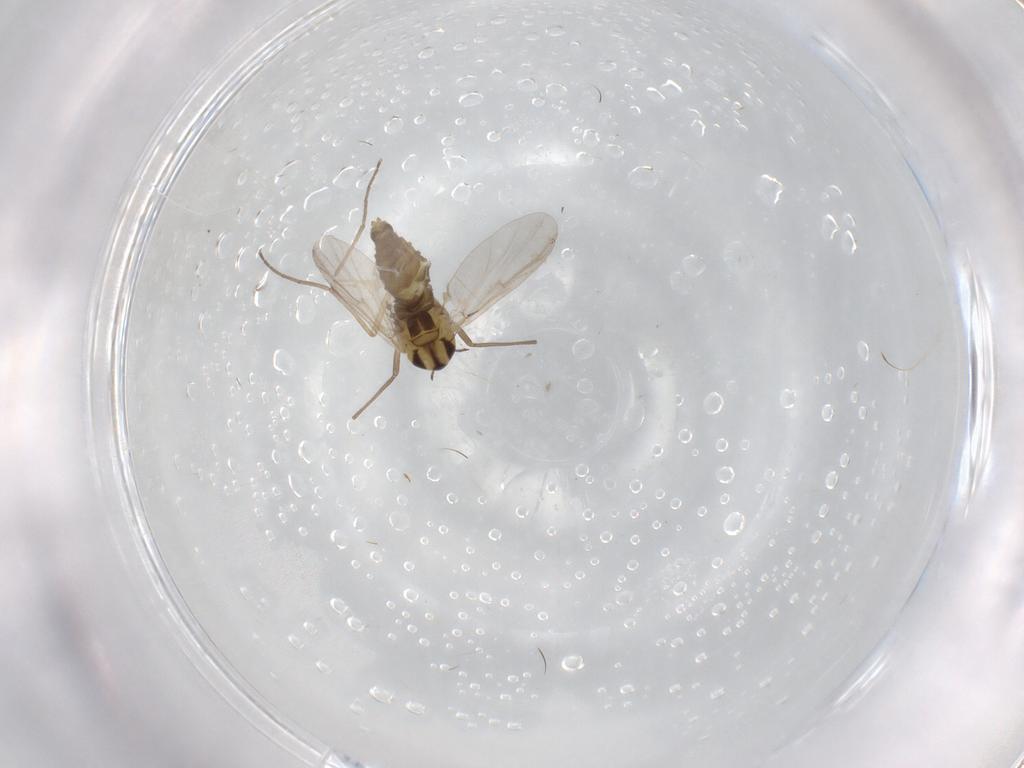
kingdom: Animalia
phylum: Arthropoda
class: Insecta
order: Diptera
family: Chironomidae
